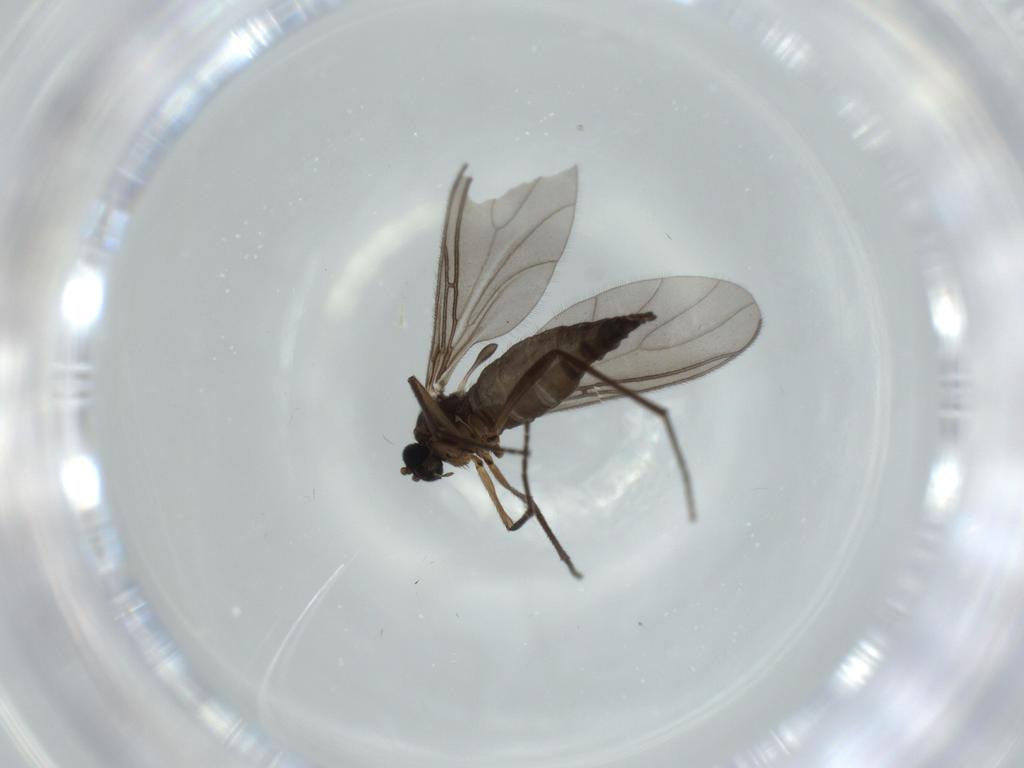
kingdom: Animalia
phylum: Arthropoda
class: Insecta
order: Diptera
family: Sciaridae
